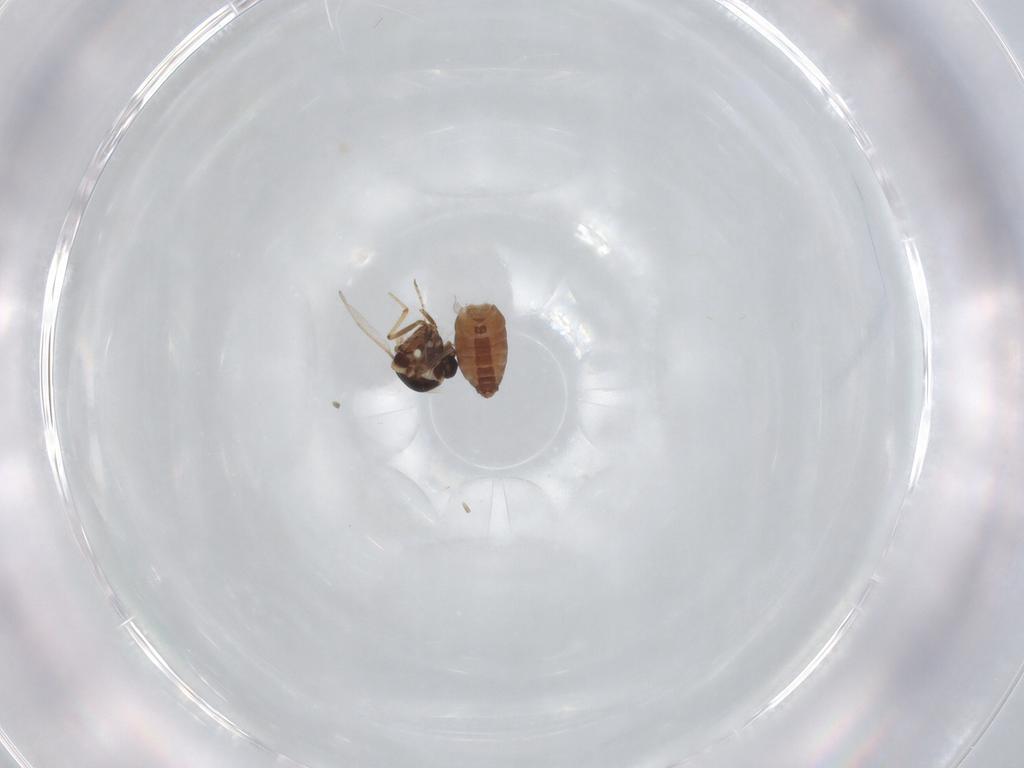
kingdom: Animalia
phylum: Arthropoda
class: Insecta
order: Diptera
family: Ceratopogonidae
